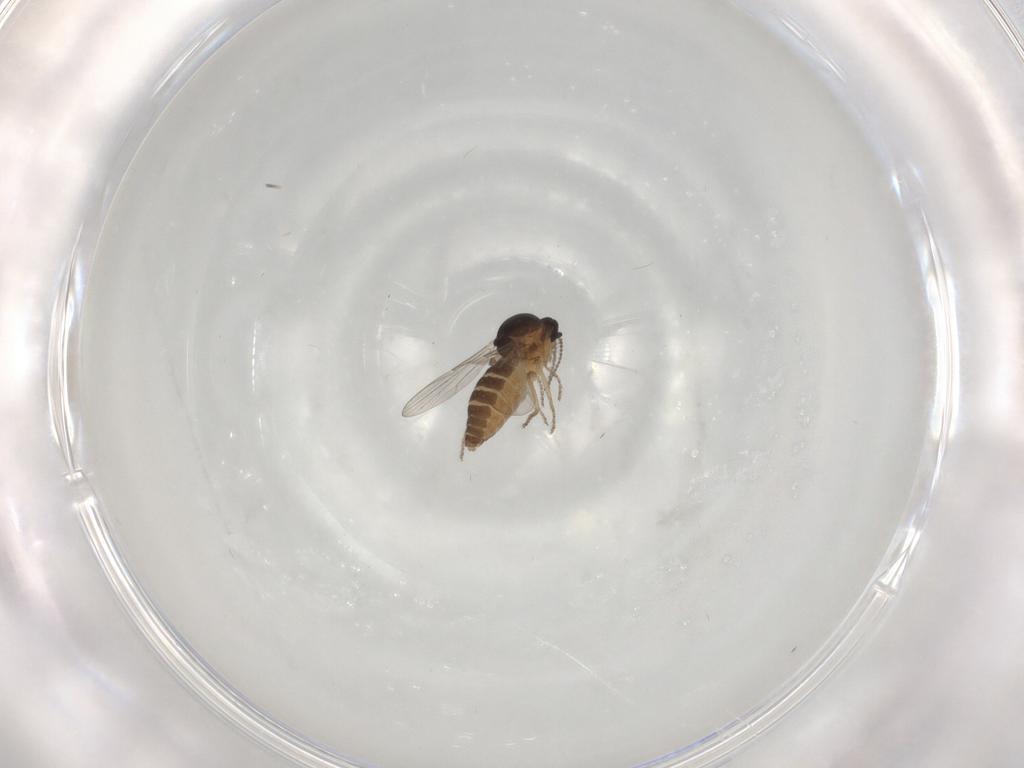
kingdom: Animalia
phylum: Arthropoda
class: Insecta
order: Diptera
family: Ceratopogonidae
